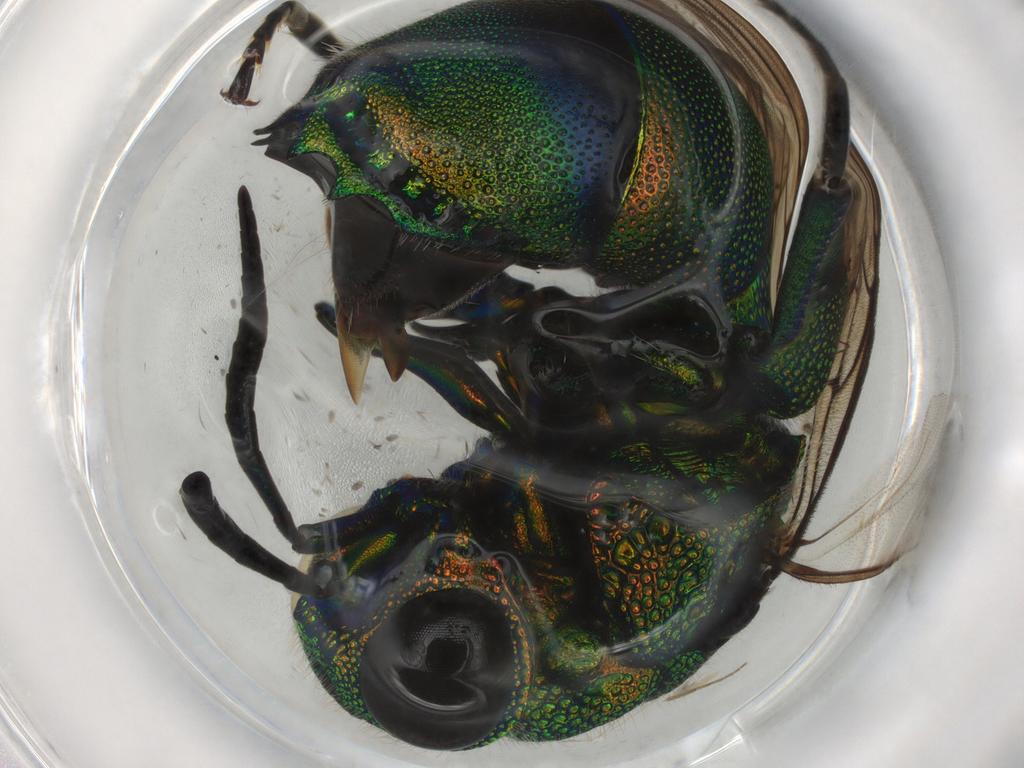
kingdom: Animalia
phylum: Arthropoda
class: Insecta
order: Hymenoptera
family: Chrysididae
